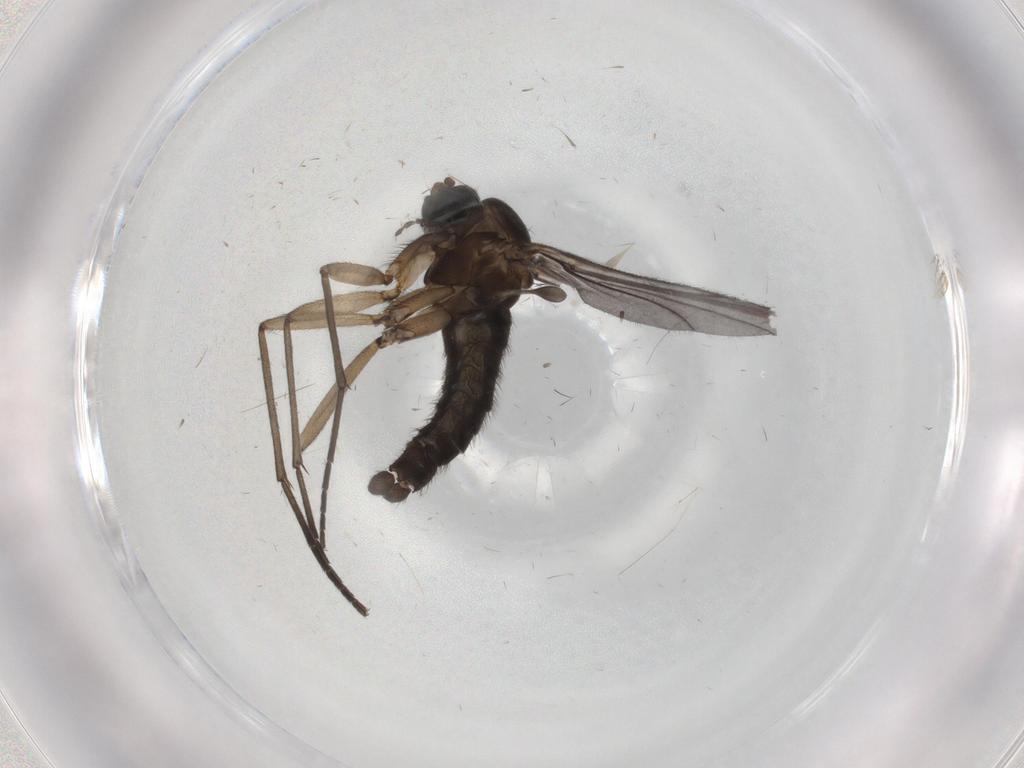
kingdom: Animalia
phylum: Arthropoda
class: Insecta
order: Diptera
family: Sciaridae
